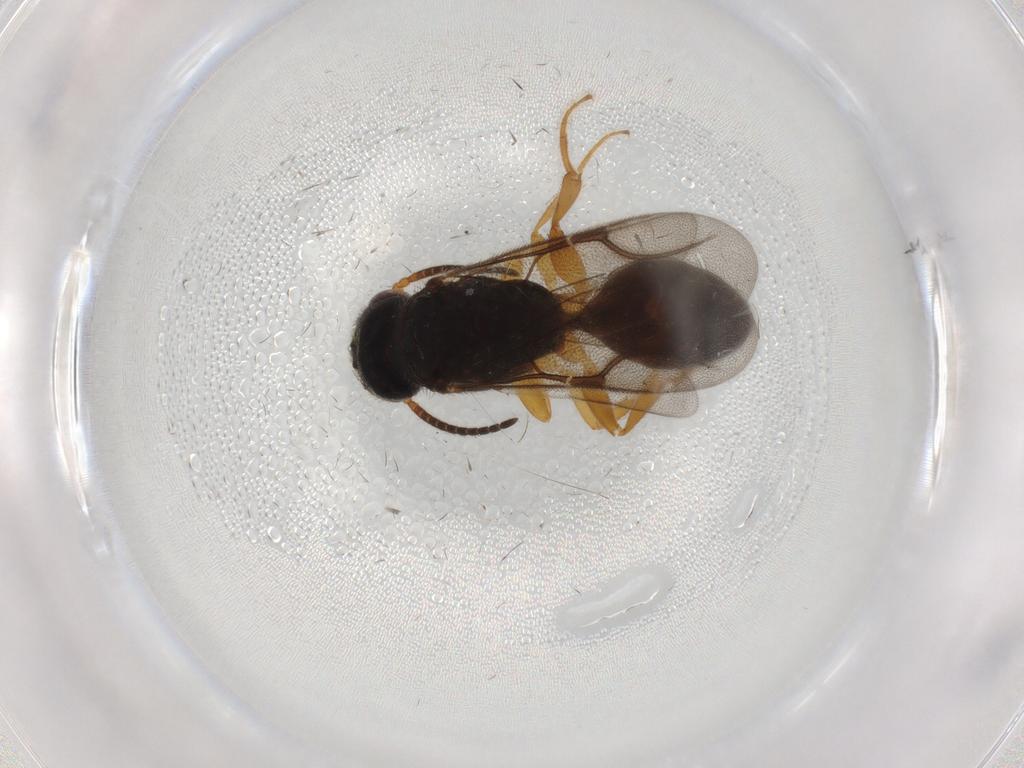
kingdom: Animalia
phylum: Arthropoda
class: Insecta
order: Hymenoptera
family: Bethylidae
